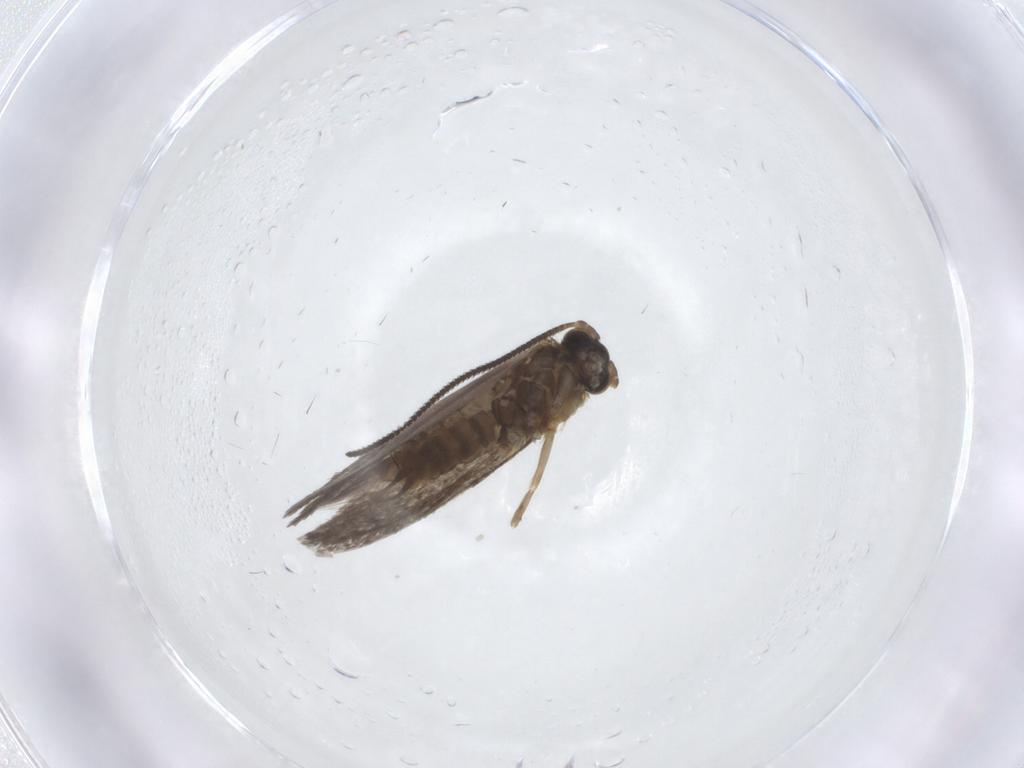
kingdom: Animalia
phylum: Arthropoda
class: Insecta
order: Lepidoptera
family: Micropterigidae
